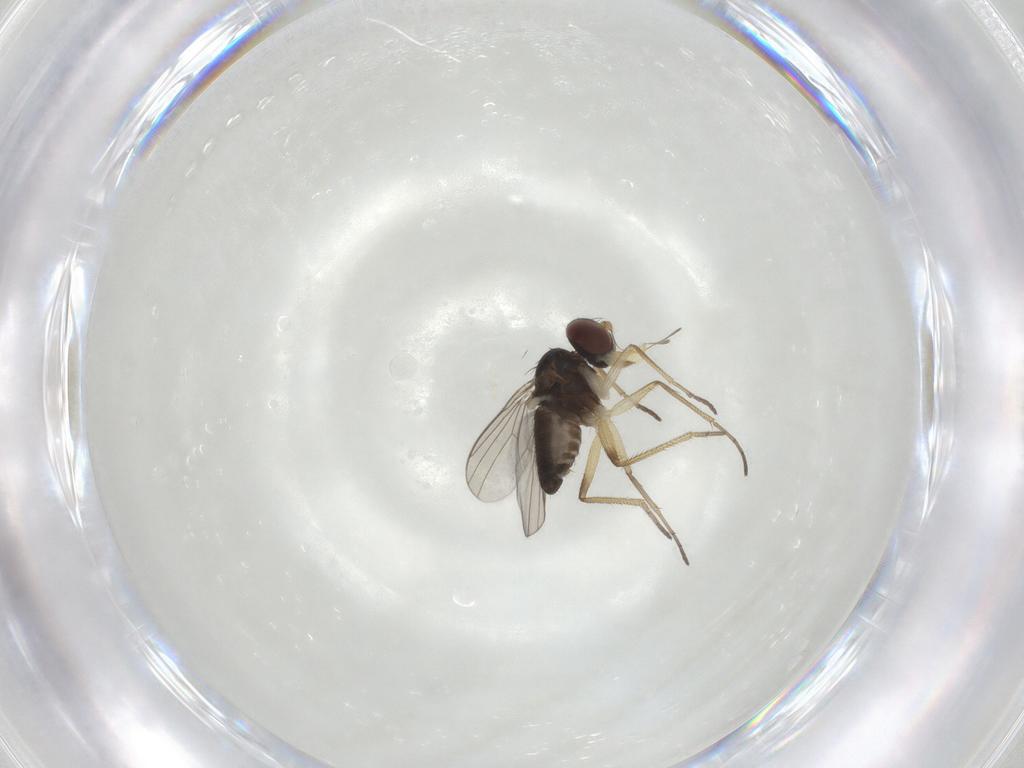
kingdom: Animalia
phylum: Arthropoda
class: Insecta
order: Diptera
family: Dolichopodidae
